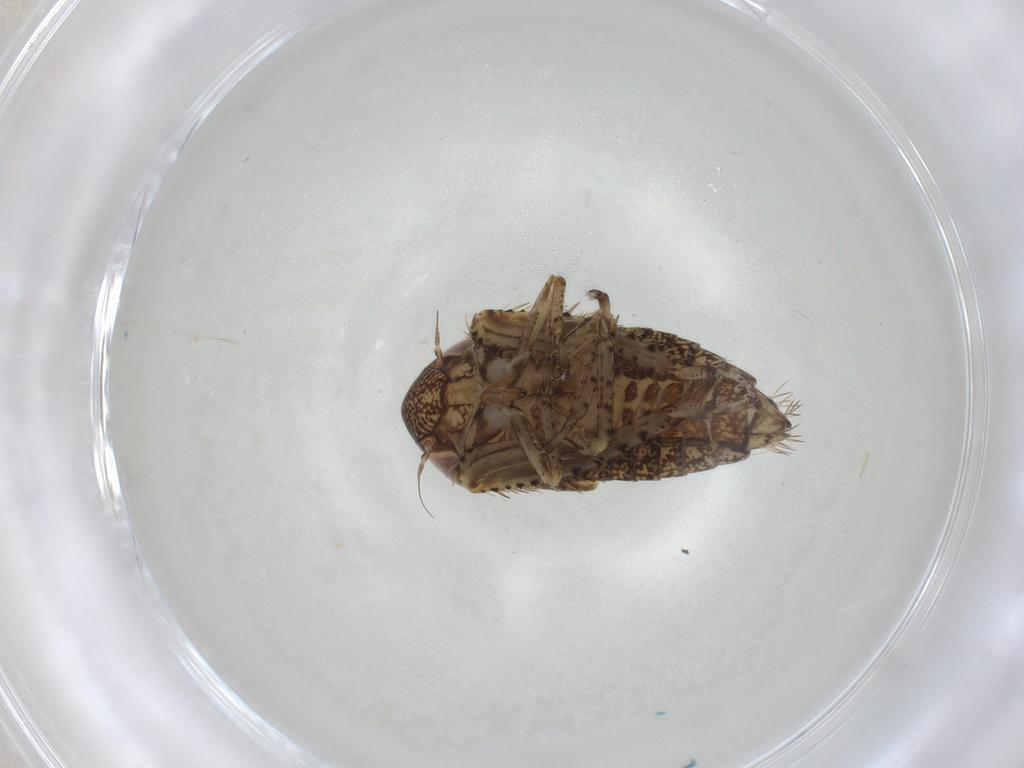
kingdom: Animalia
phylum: Arthropoda
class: Insecta
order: Hemiptera
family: Cicadellidae
